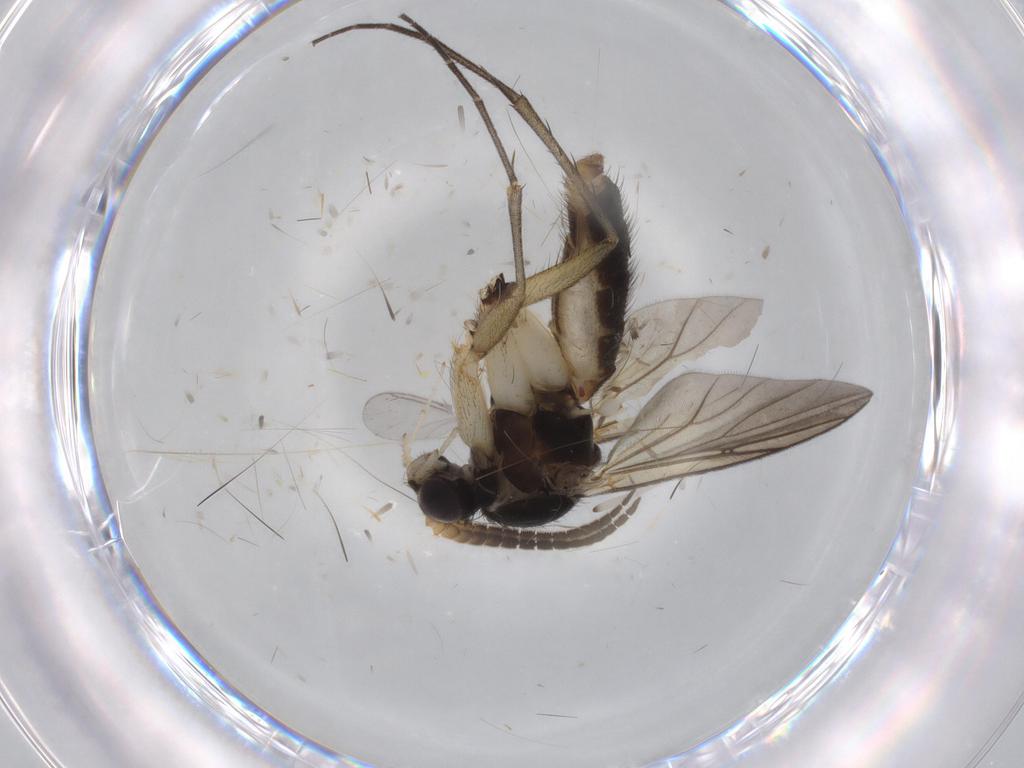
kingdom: Animalia
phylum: Arthropoda
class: Insecta
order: Diptera
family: Chironomidae
